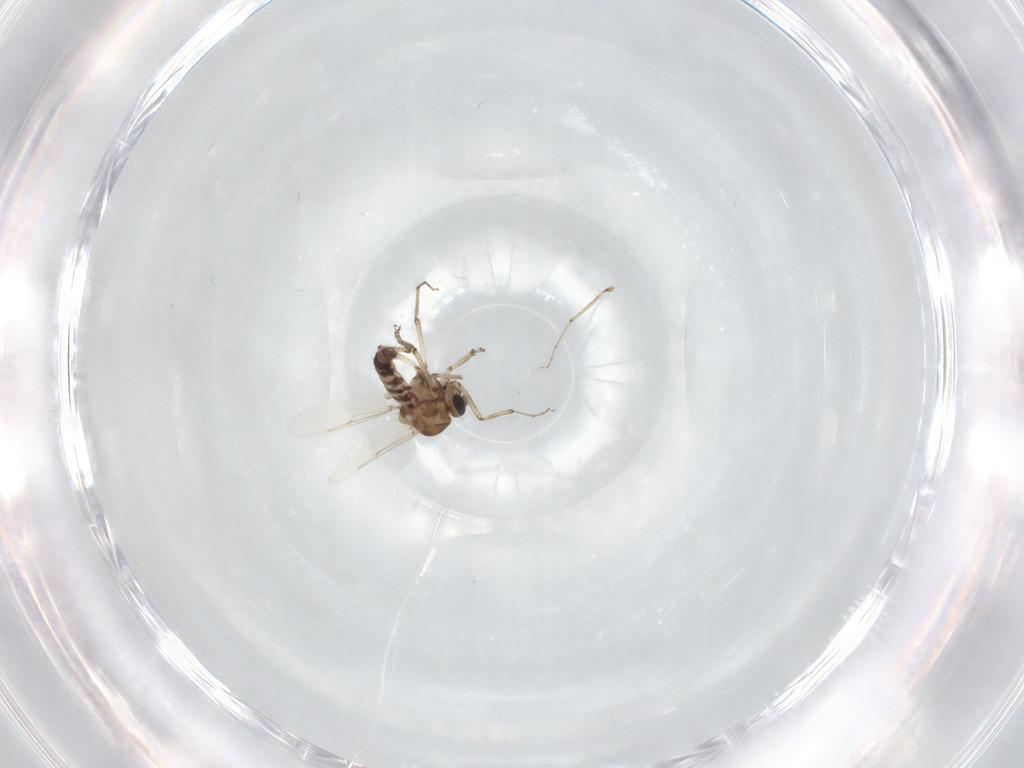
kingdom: Animalia
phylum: Arthropoda
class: Insecta
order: Diptera
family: Ceratopogonidae
